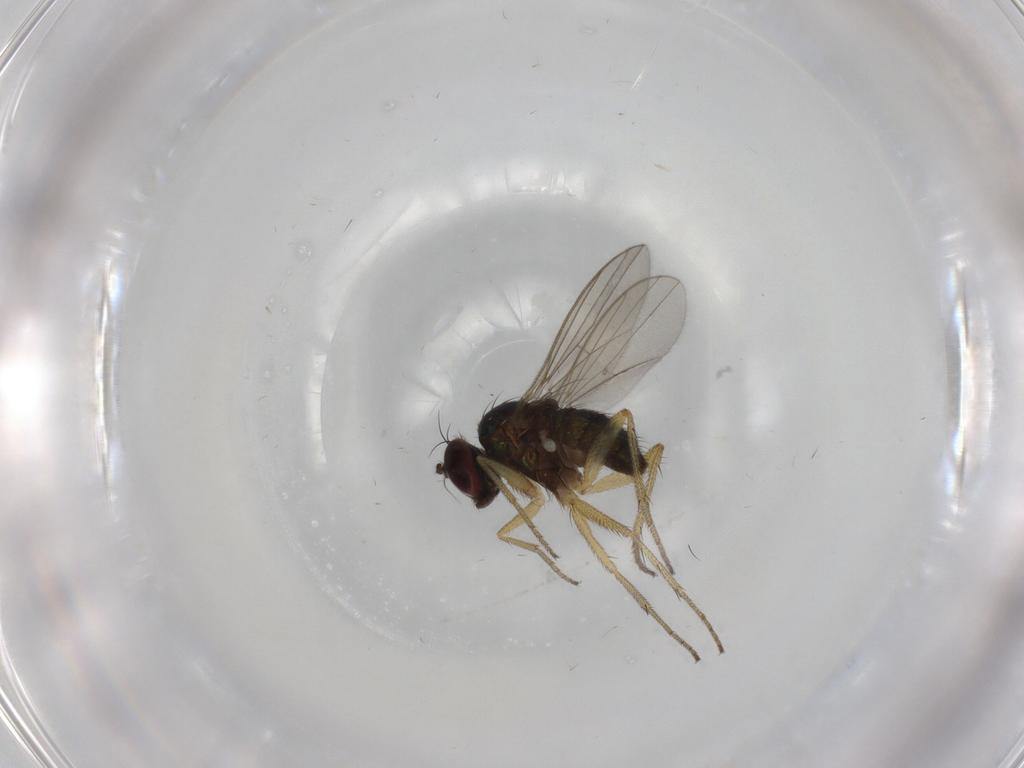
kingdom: Animalia
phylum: Arthropoda
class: Insecta
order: Diptera
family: Dolichopodidae
